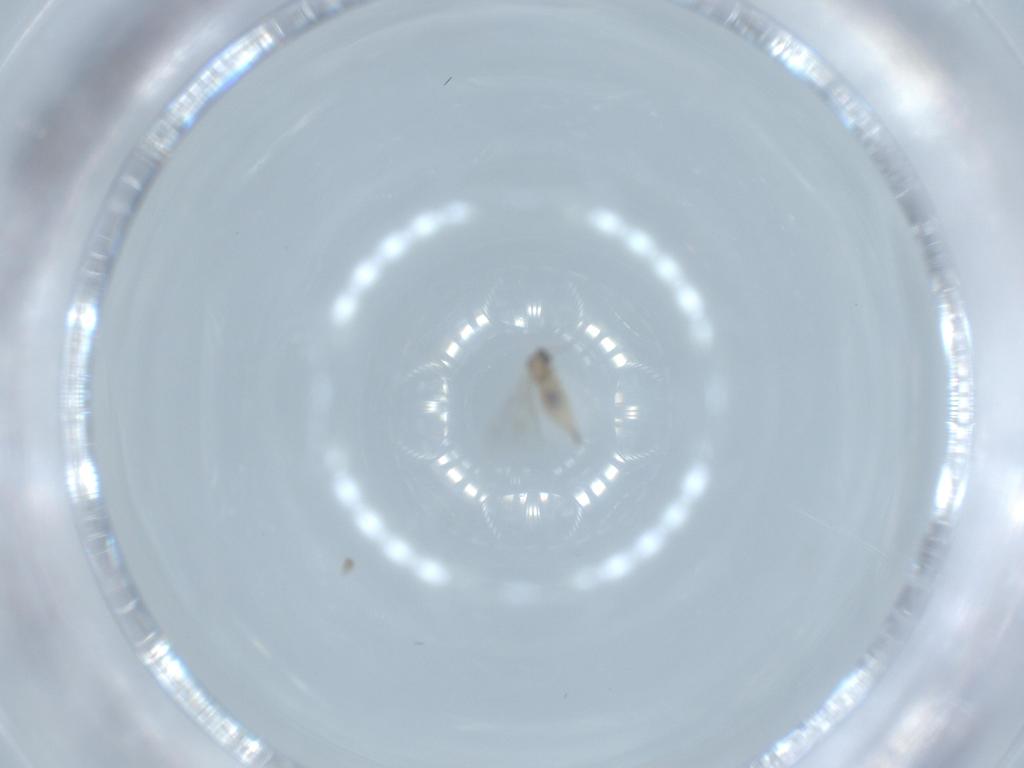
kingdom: Animalia
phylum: Arthropoda
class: Insecta
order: Diptera
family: Cecidomyiidae
